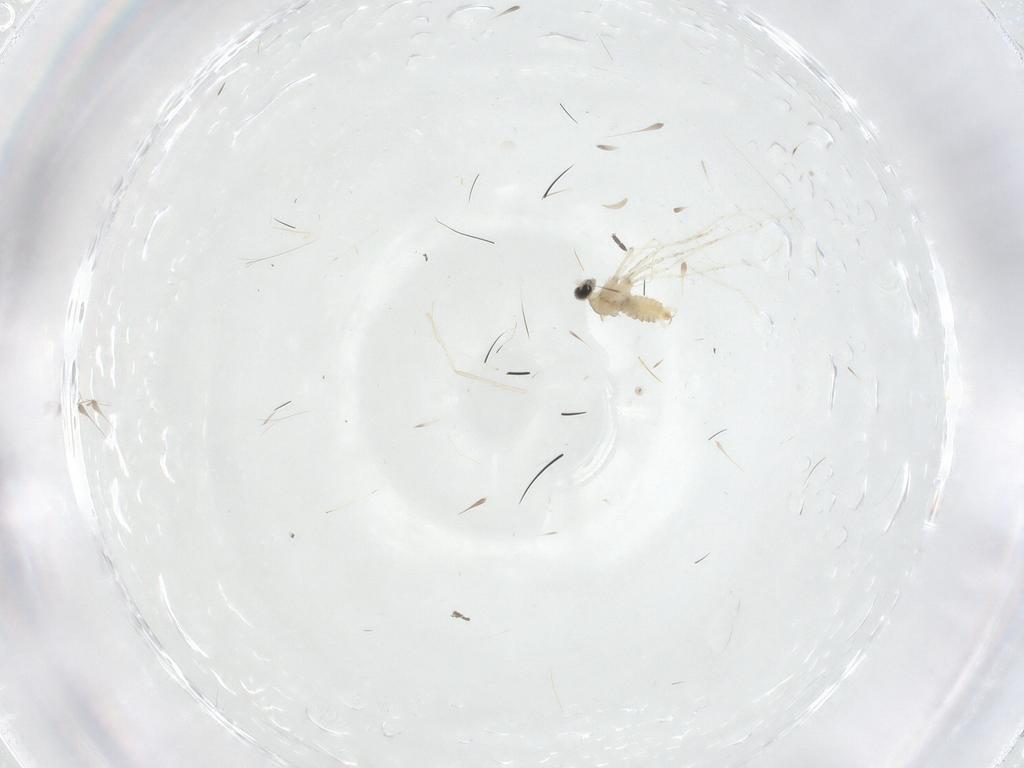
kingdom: Animalia
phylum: Arthropoda
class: Insecta
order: Diptera
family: Cecidomyiidae
